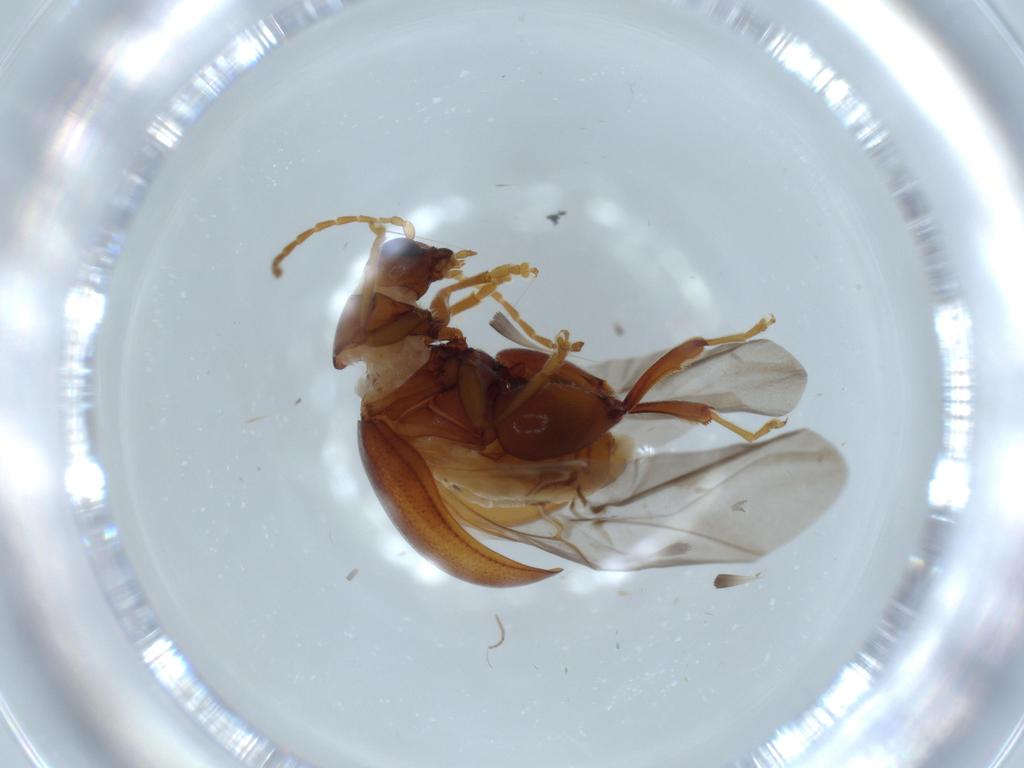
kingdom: Animalia
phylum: Arthropoda
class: Insecta
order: Coleoptera
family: Chrysomelidae
